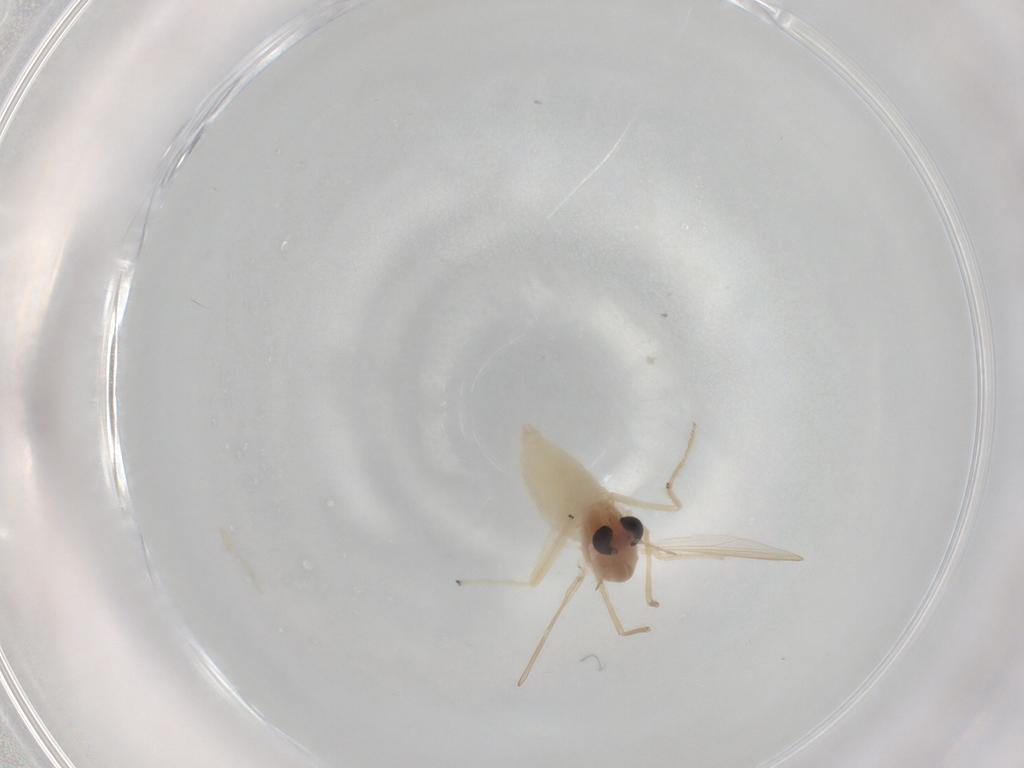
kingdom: Animalia
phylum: Arthropoda
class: Insecta
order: Diptera
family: Chironomidae
